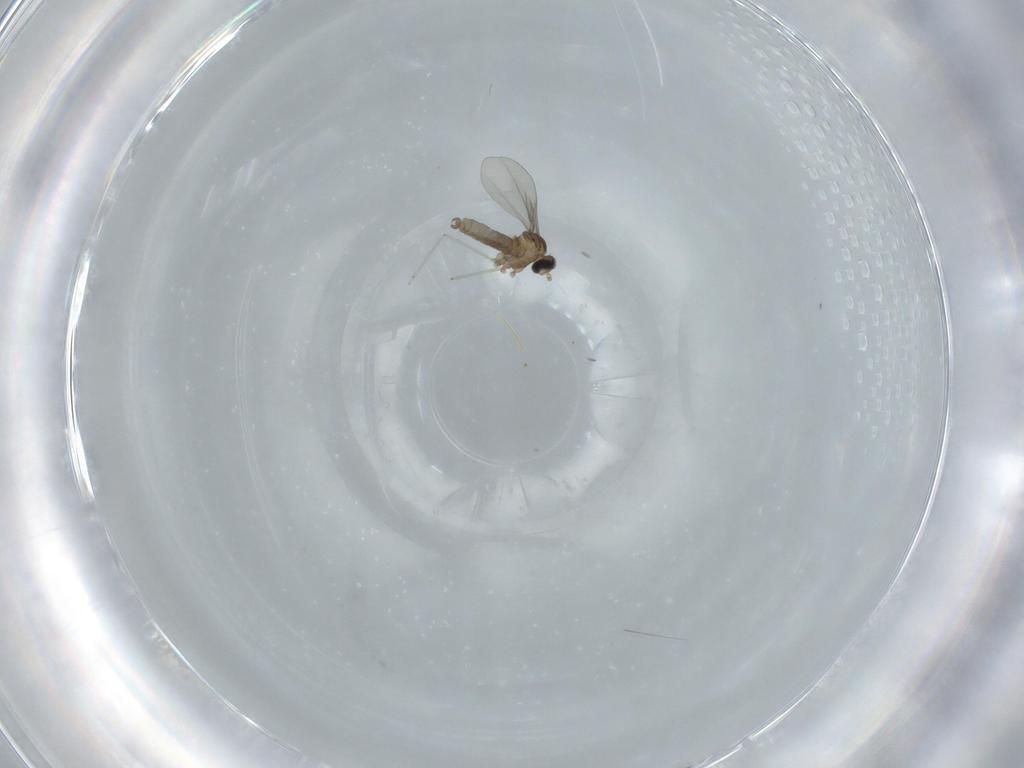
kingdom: Animalia
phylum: Arthropoda
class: Insecta
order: Diptera
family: Cecidomyiidae
